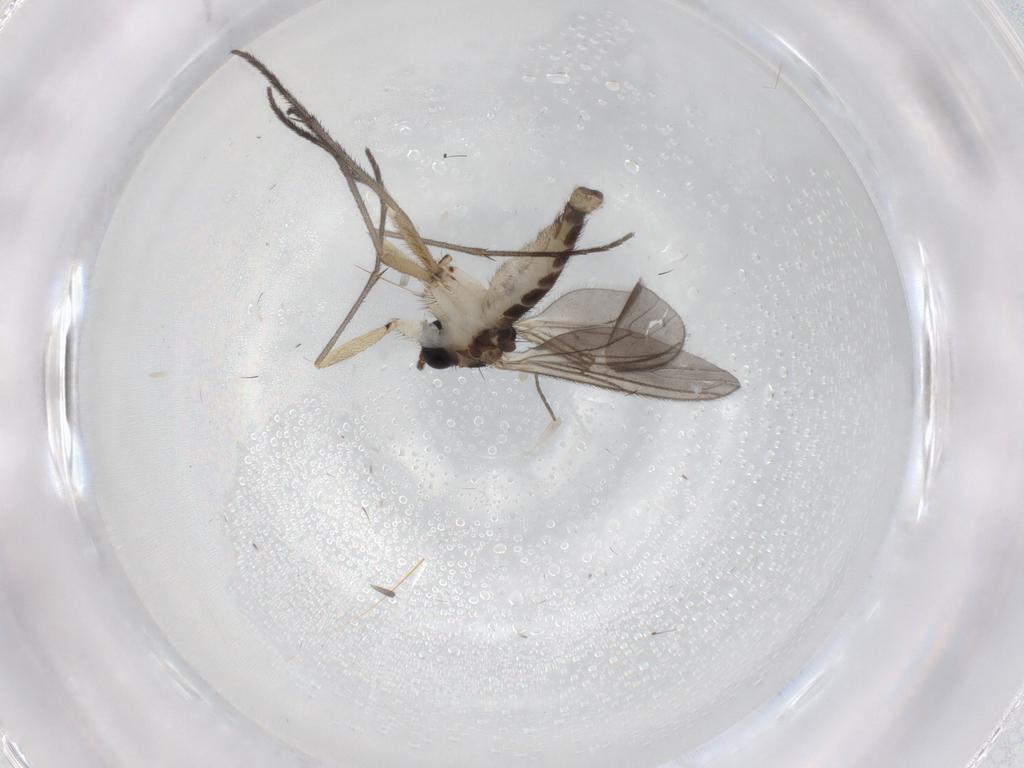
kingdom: Animalia
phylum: Arthropoda
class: Insecta
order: Diptera
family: Sciaridae
